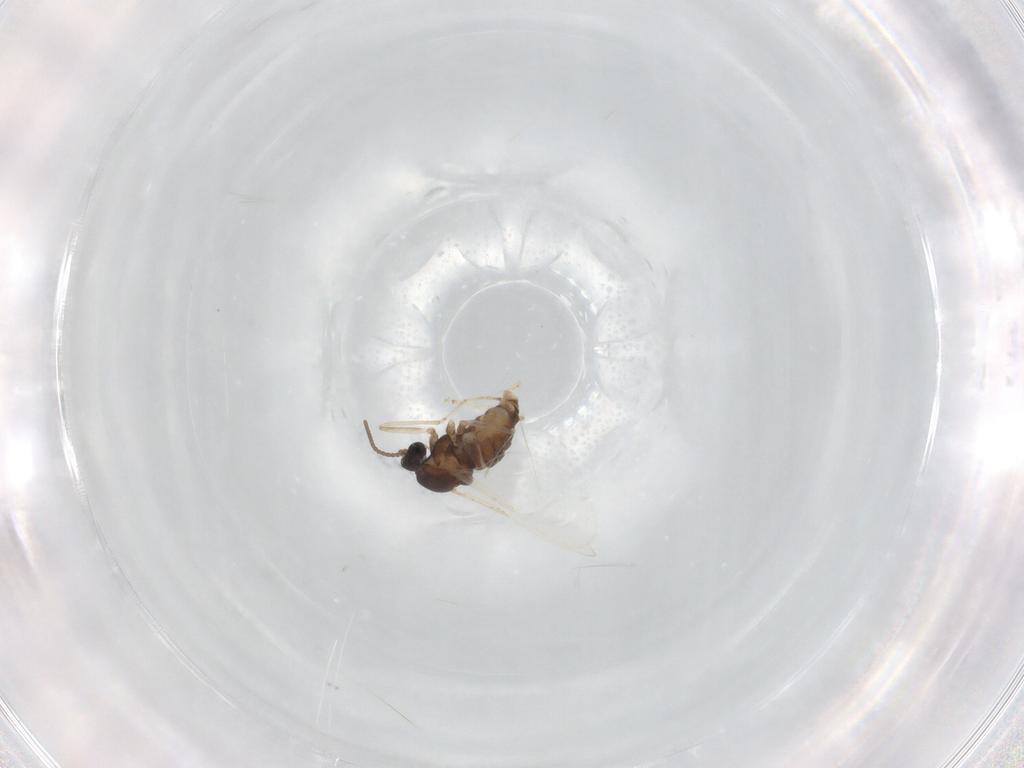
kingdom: Animalia
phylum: Arthropoda
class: Insecta
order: Diptera
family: Cecidomyiidae
